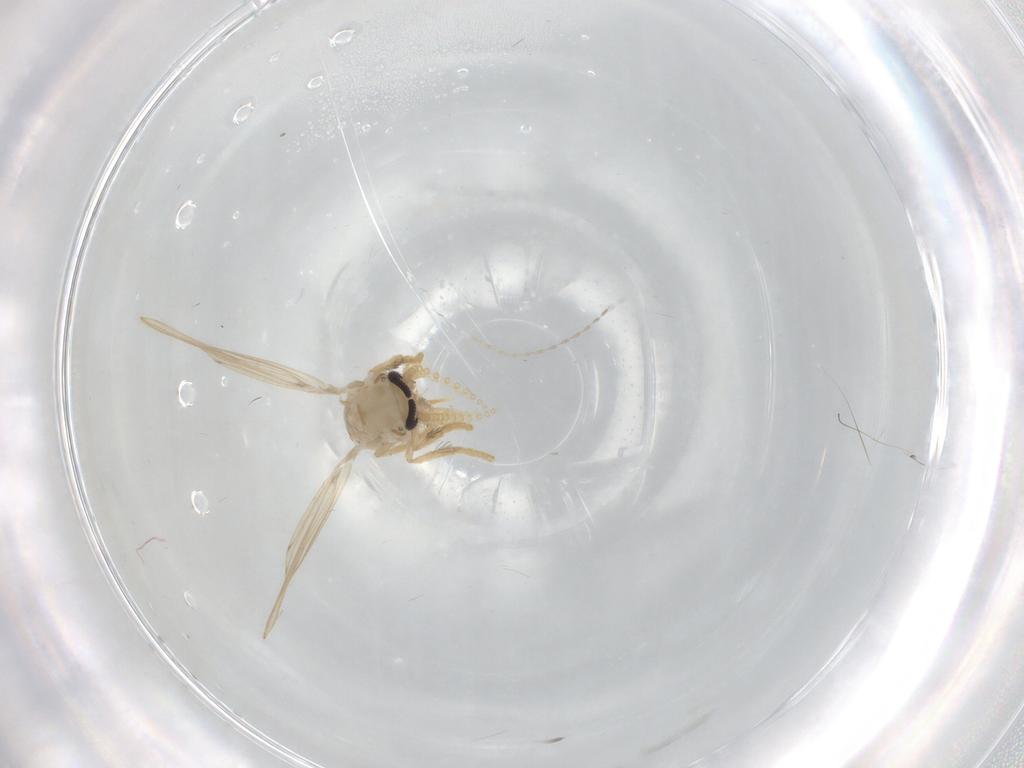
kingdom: Animalia
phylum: Arthropoda
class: Insecta
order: Diptera
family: Psychodidae
